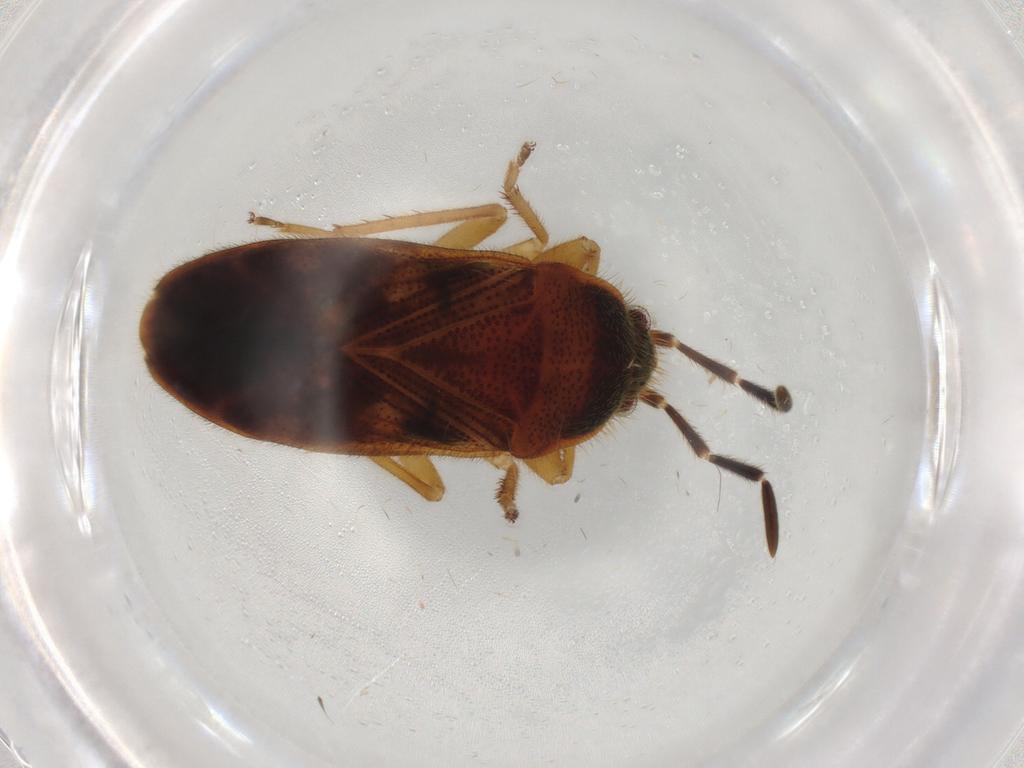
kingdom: Animalia
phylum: Arthropoda
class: Insecta
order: Hemiptera
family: Rhyparochromidae
